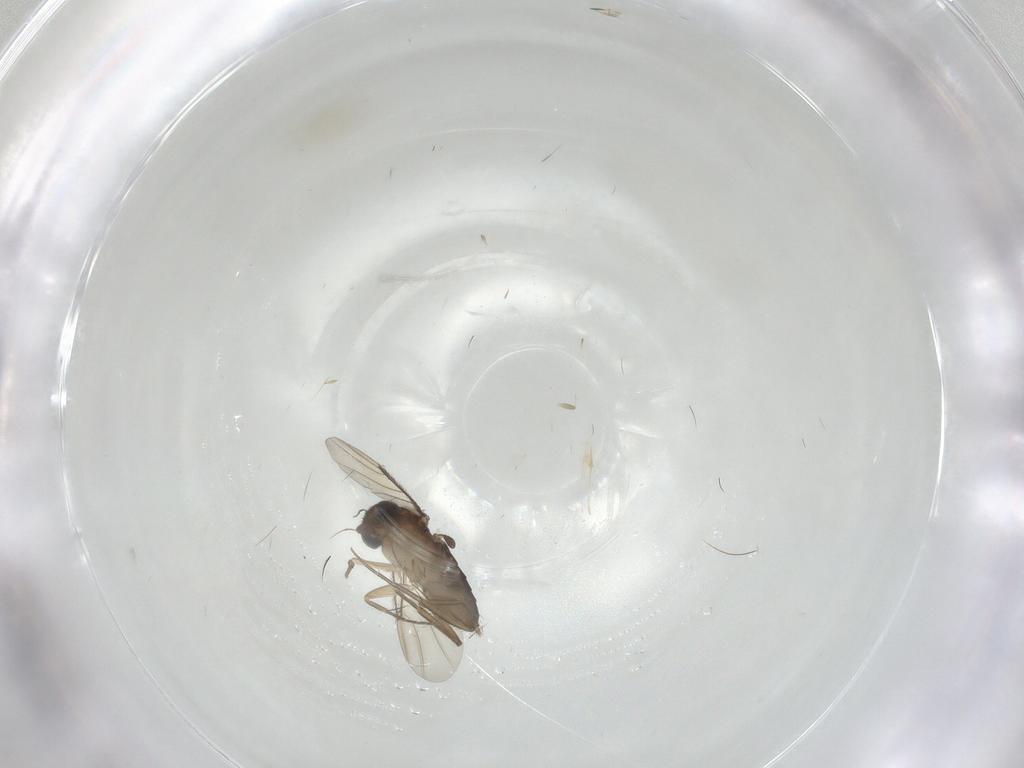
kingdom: Animalia
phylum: Arthropoda
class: Insecta
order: Diptera
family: Phoridae
